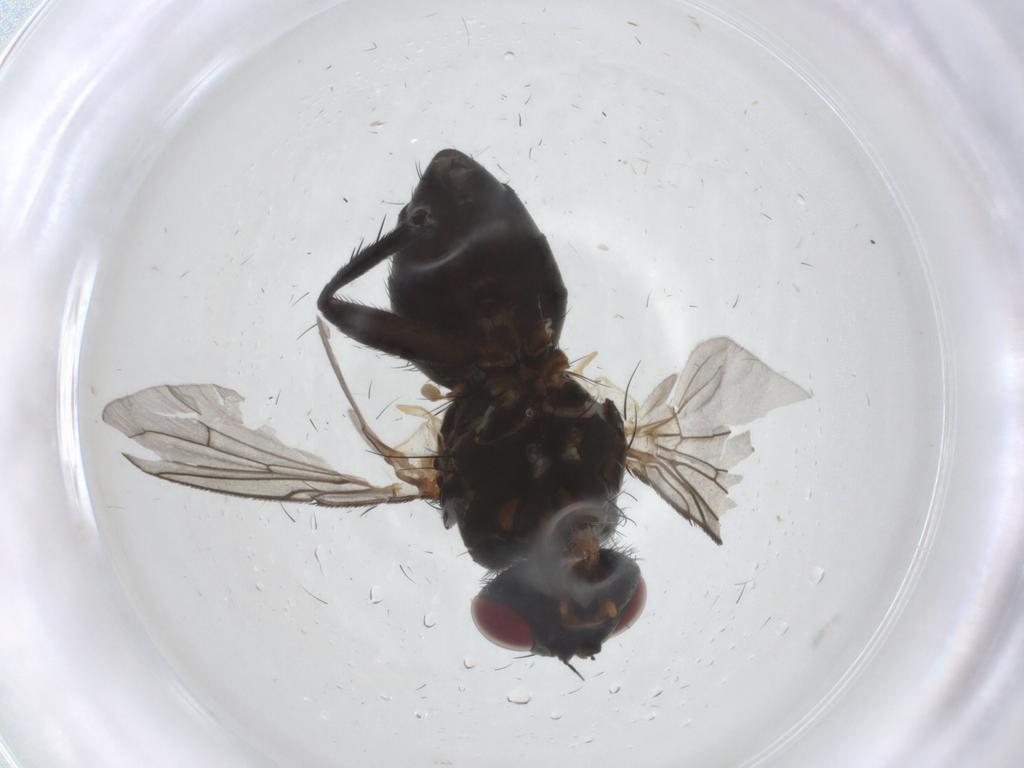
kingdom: Animalia
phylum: Arthropoda
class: Insecta
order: Diptera
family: Calliphoridae
